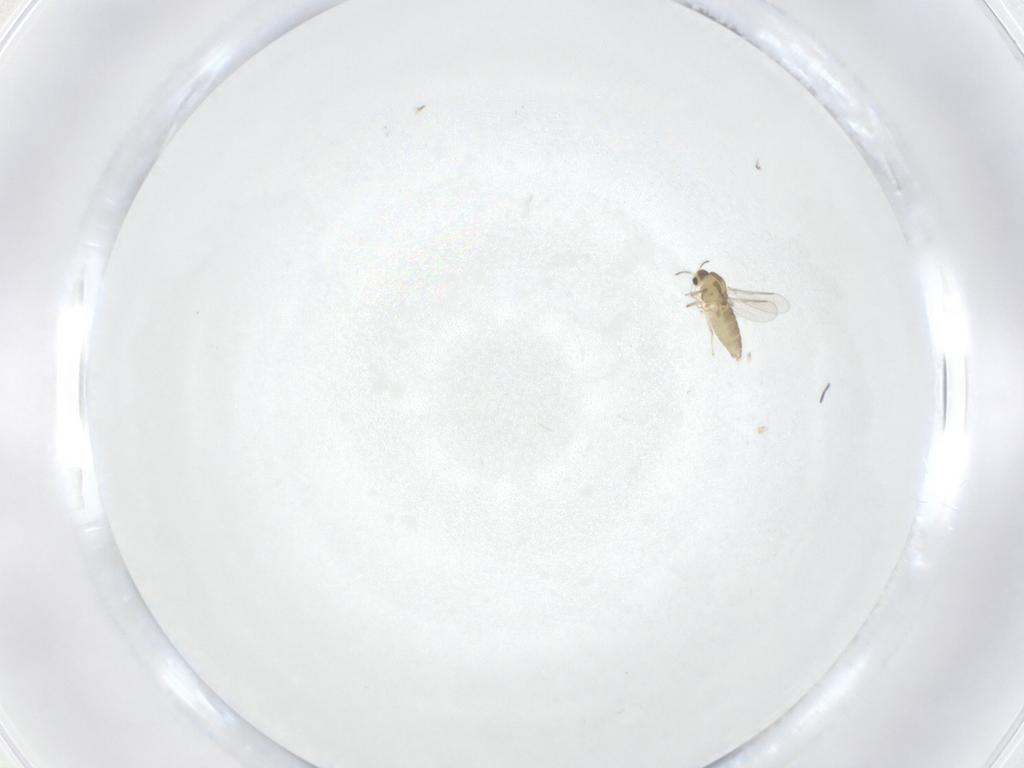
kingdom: Animalia
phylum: Arthropoda
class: Insecta
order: Diptera
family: Chironomidae
